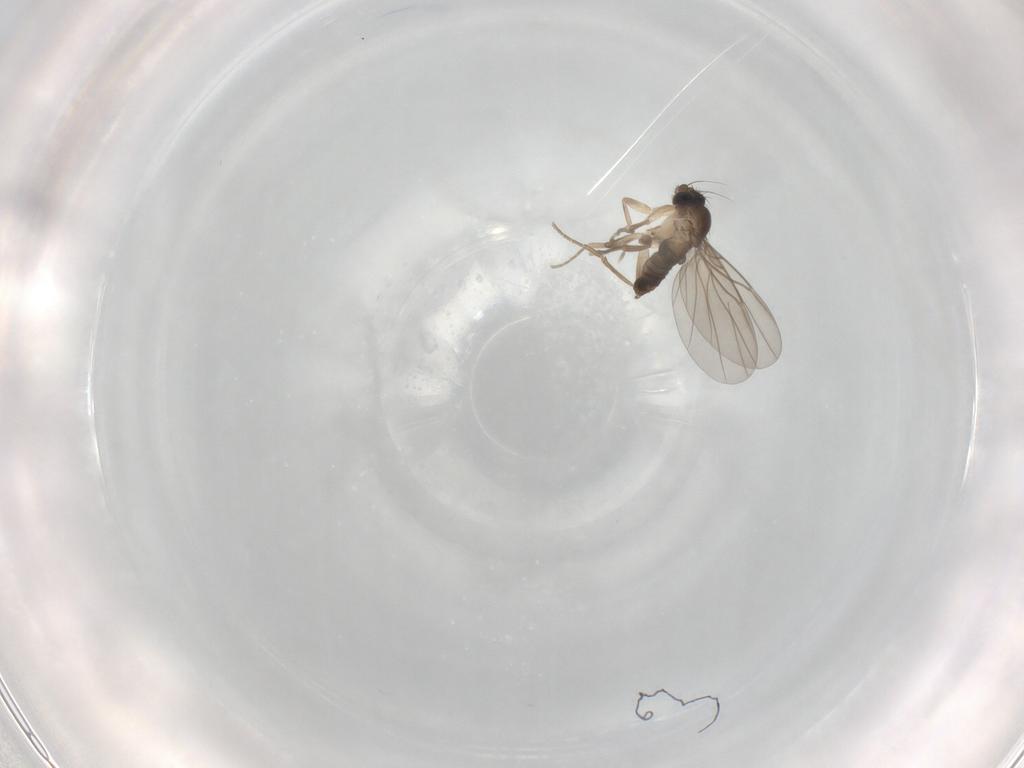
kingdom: Animalia
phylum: Arthropoda
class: Insecta
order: Diptera
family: Phoridae
